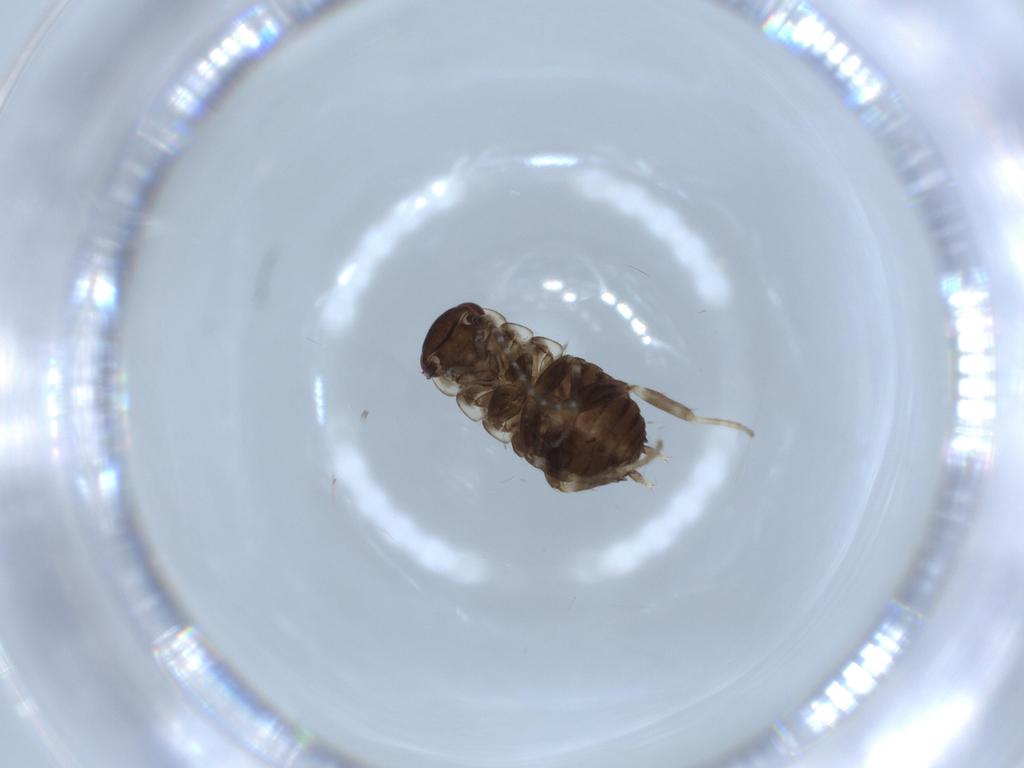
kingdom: Animalia
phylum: Arthropoda
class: Insecta
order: Blattodea
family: Ectobiidae
